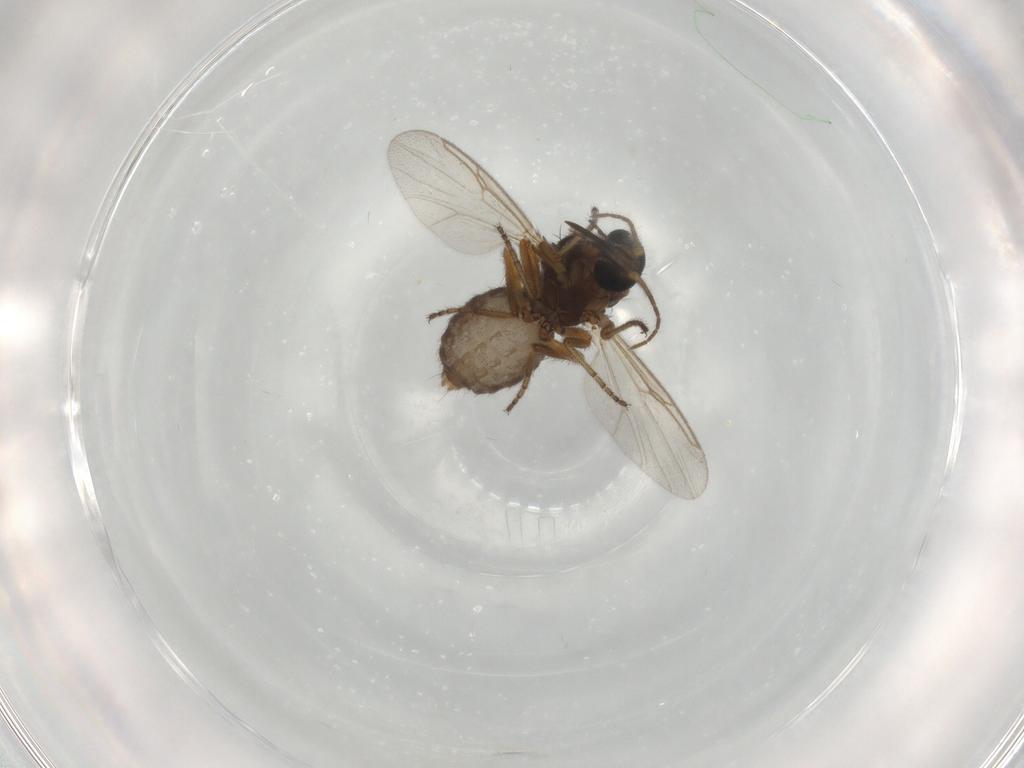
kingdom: Animalia
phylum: Arthropoda
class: Insecta
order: Diptera
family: Ceratopogonidae
